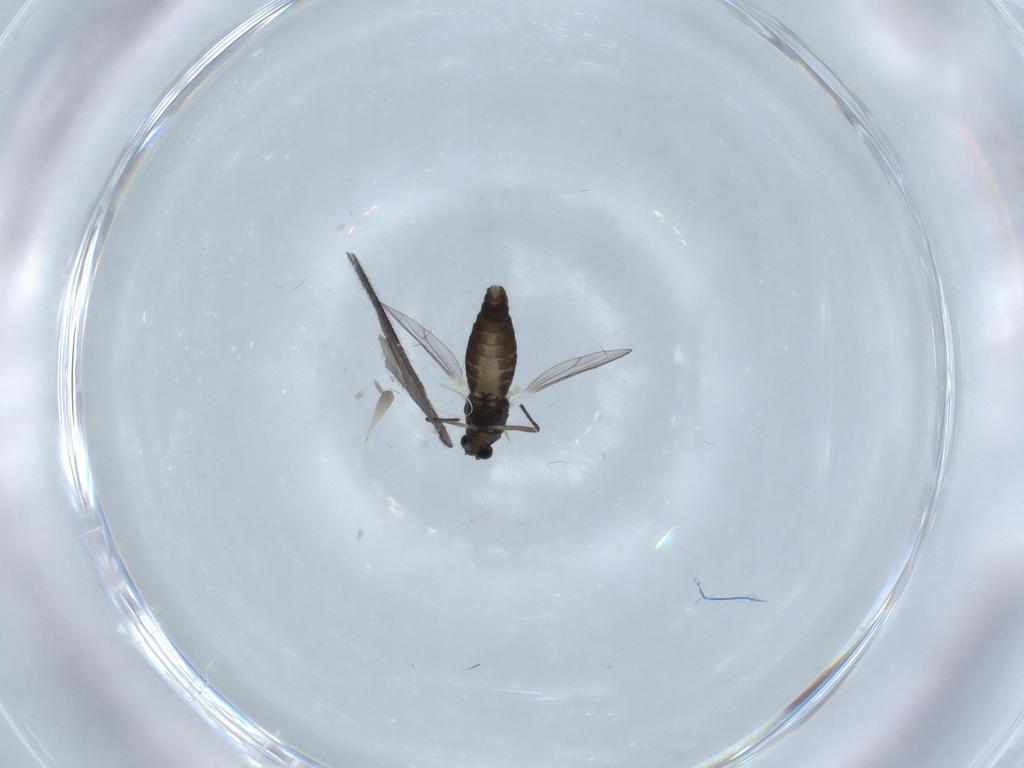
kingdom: Animalia
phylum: Arthropoda
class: Insecta
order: Diptera
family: Chironomidae
